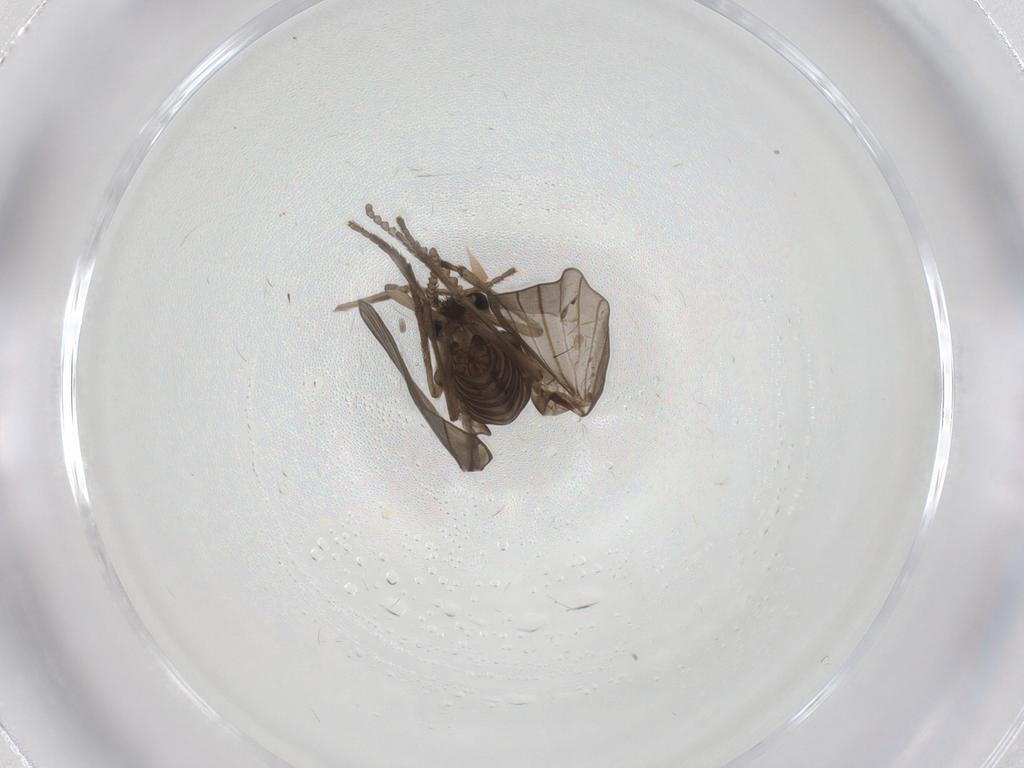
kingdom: Animalia
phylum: Arthropoda
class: Insecta
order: Diptera
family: Psychodidae
